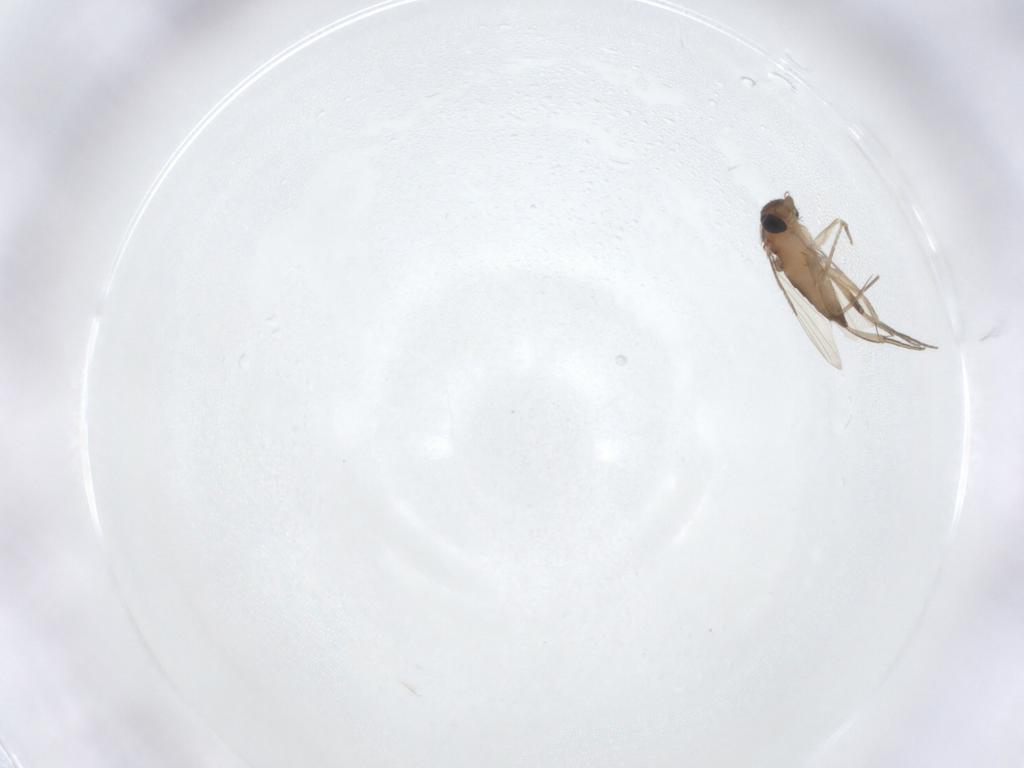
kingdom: Animalia
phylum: Arthropoda
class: Insecta
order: Diptera
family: Phoridae
